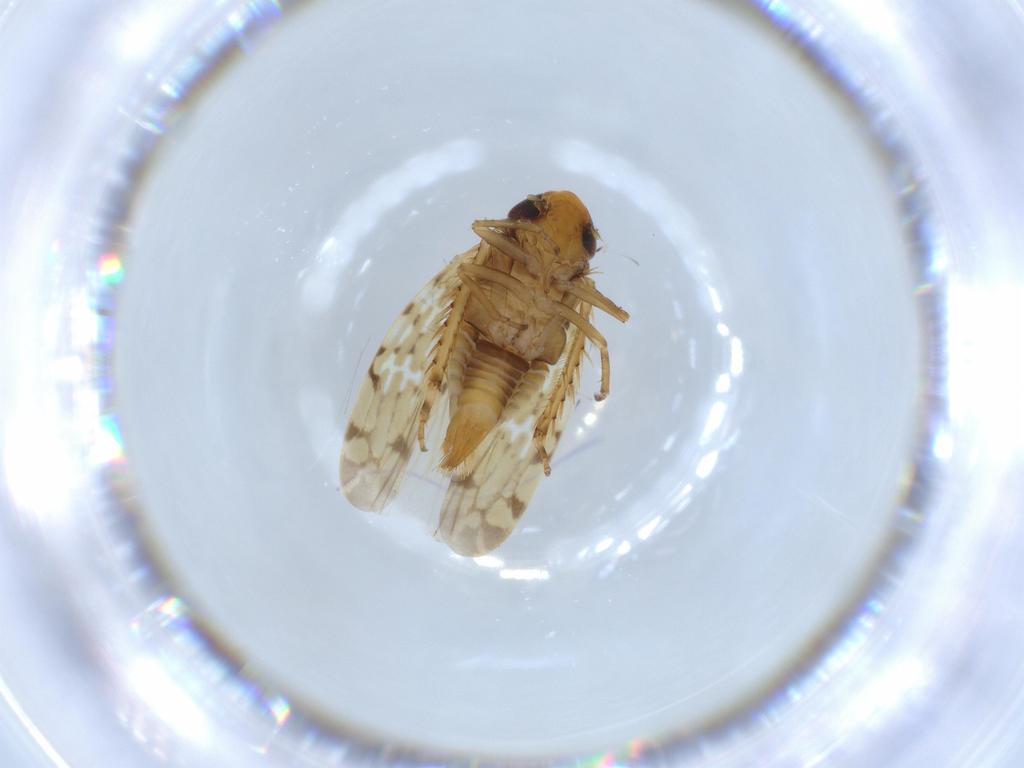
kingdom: Animalia
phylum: Arthropoda
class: Insecta
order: Hemiptera
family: Cicadellidae
